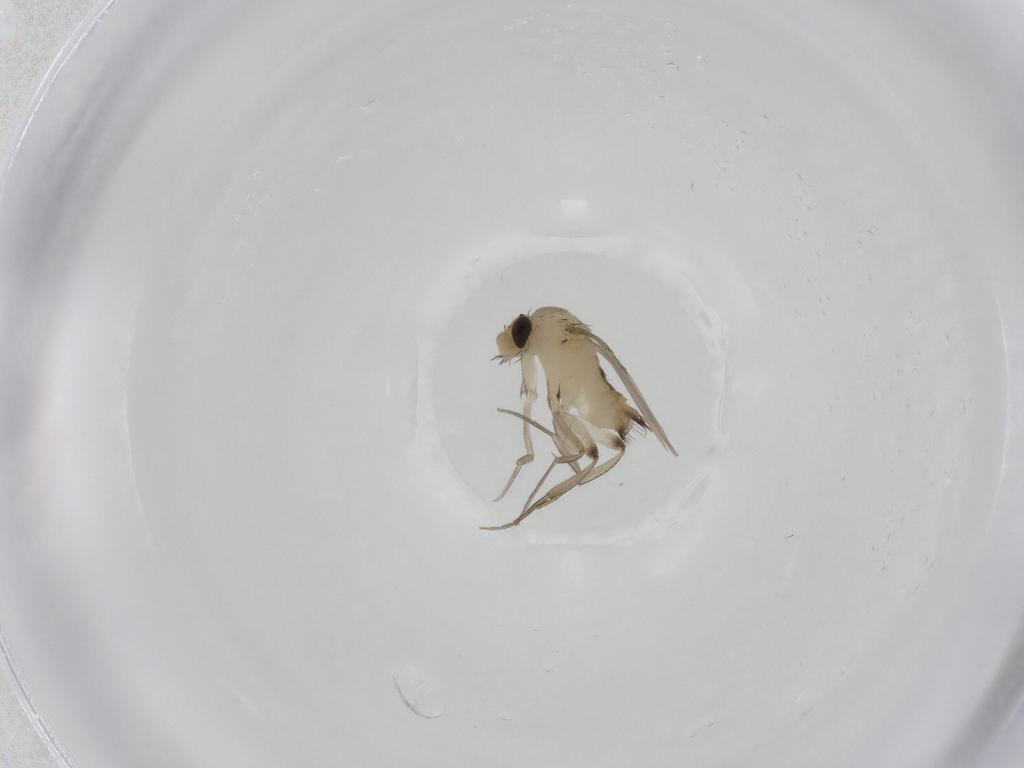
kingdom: Animalia
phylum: Arthropoda
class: Insecta
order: Diptera
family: Phoridae
